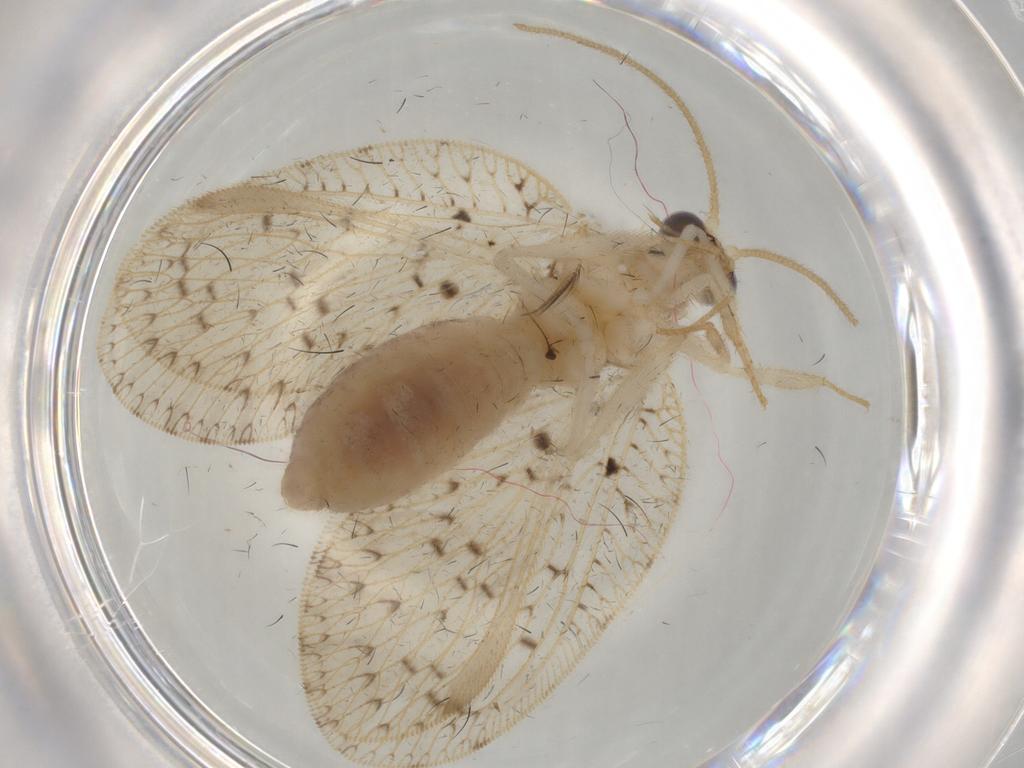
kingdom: Animalia
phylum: Arthropoda
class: Insecta
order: Neuroptera
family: Hemerobiidae
